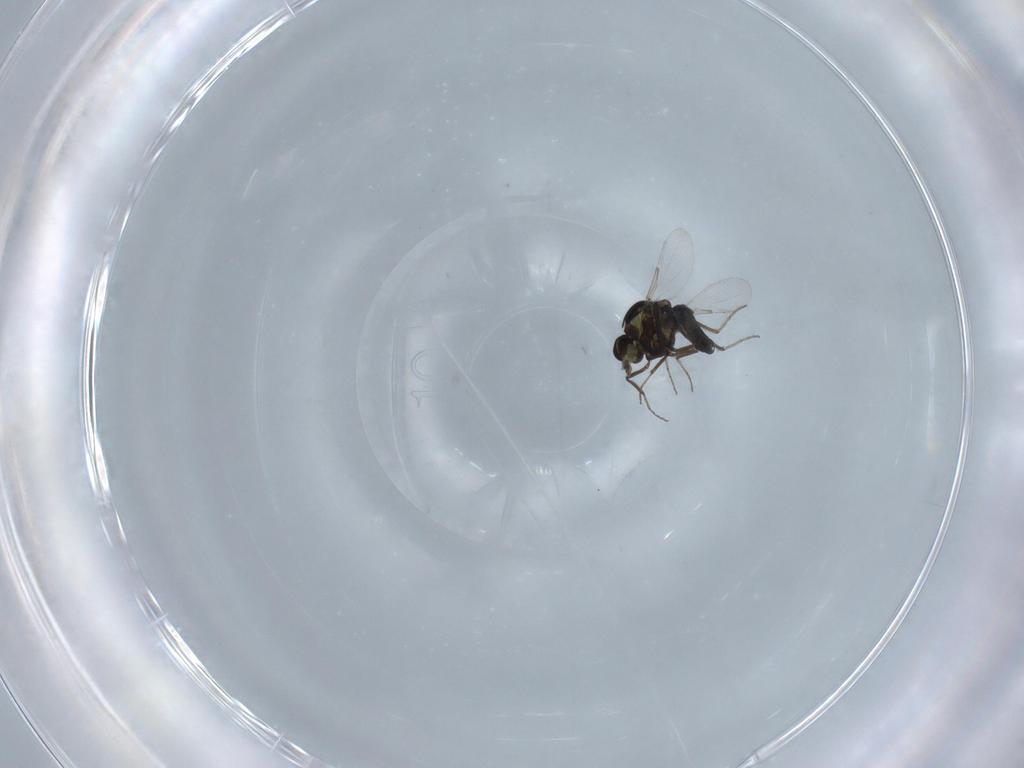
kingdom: Animalia
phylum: Arthropoda
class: Insecta
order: Diptera
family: Ceratopogonidae
